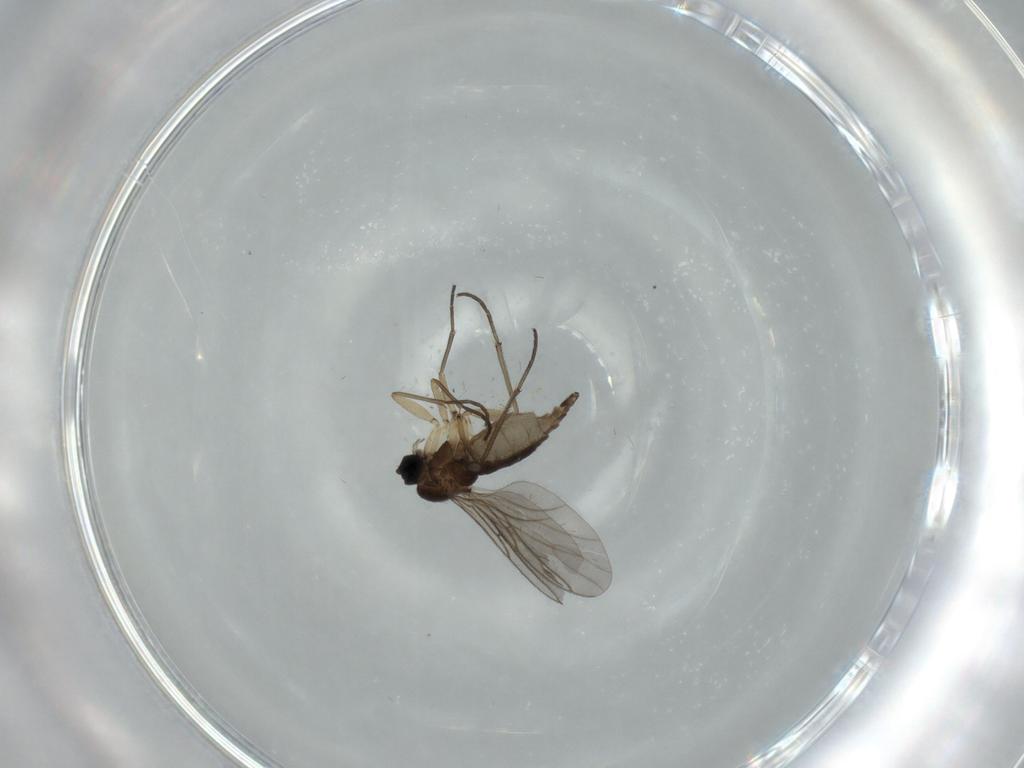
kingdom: Animalia
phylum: Arthropoda
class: Insecta
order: Diptera
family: Sciaridae
